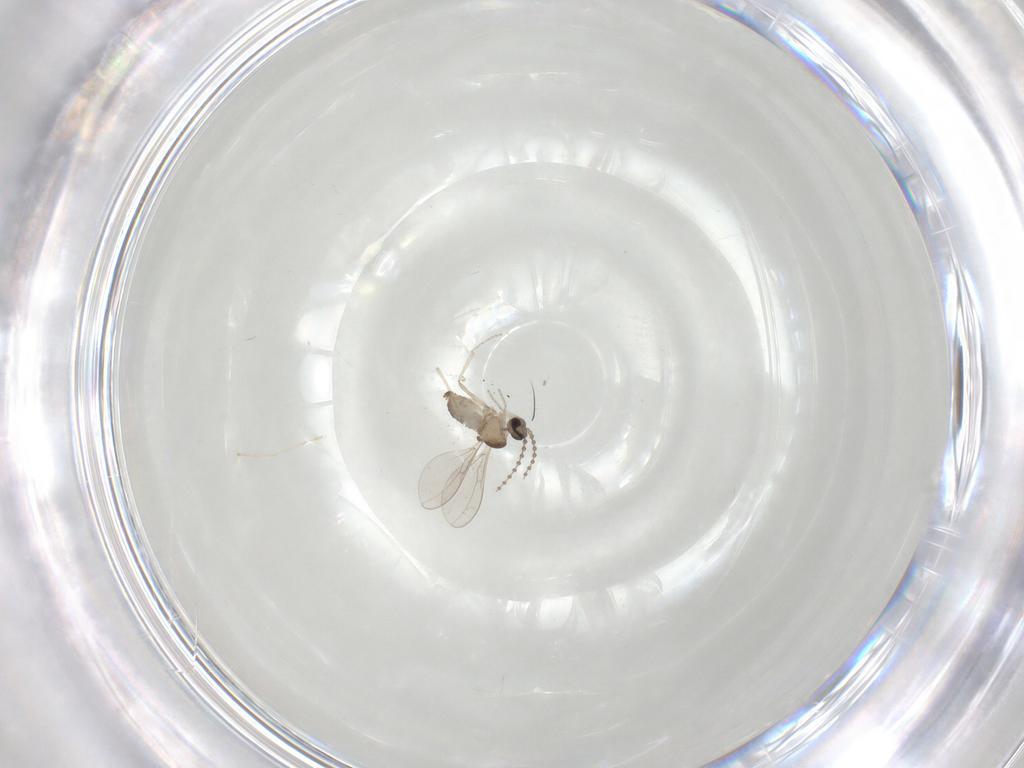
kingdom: Animalia
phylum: Arthropoda
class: Insecta
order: Diptera
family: Cecidomyiidae
